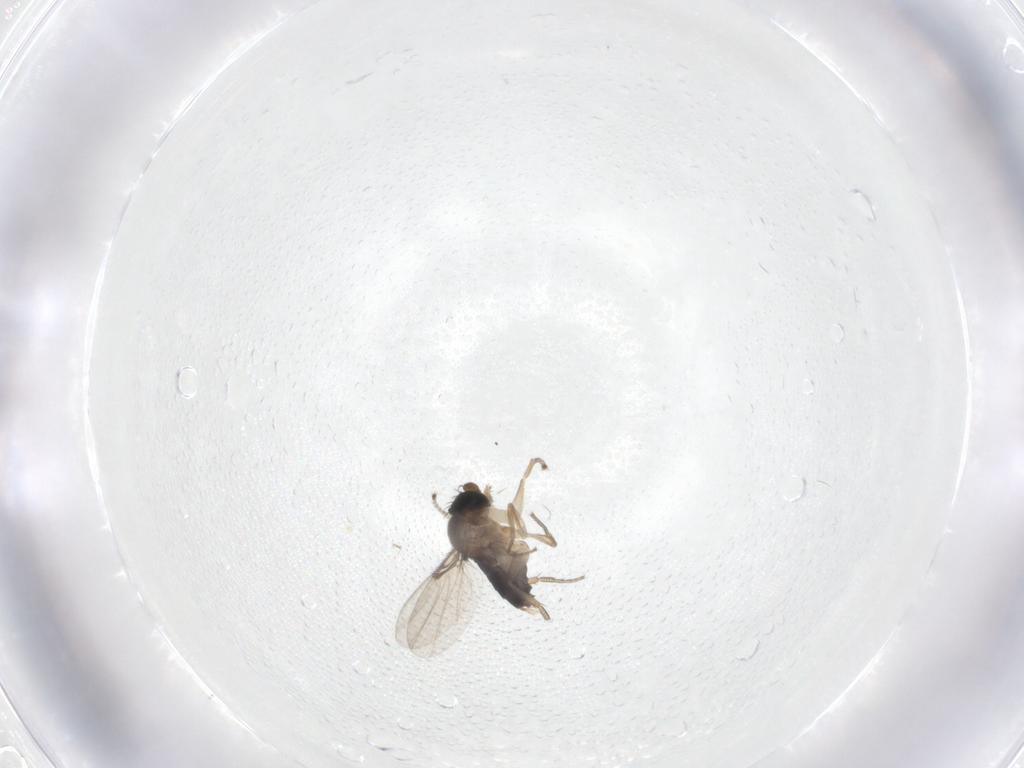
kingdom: Animalia
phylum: Arthropoda
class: Insecta
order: Diptera
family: Phoridae
